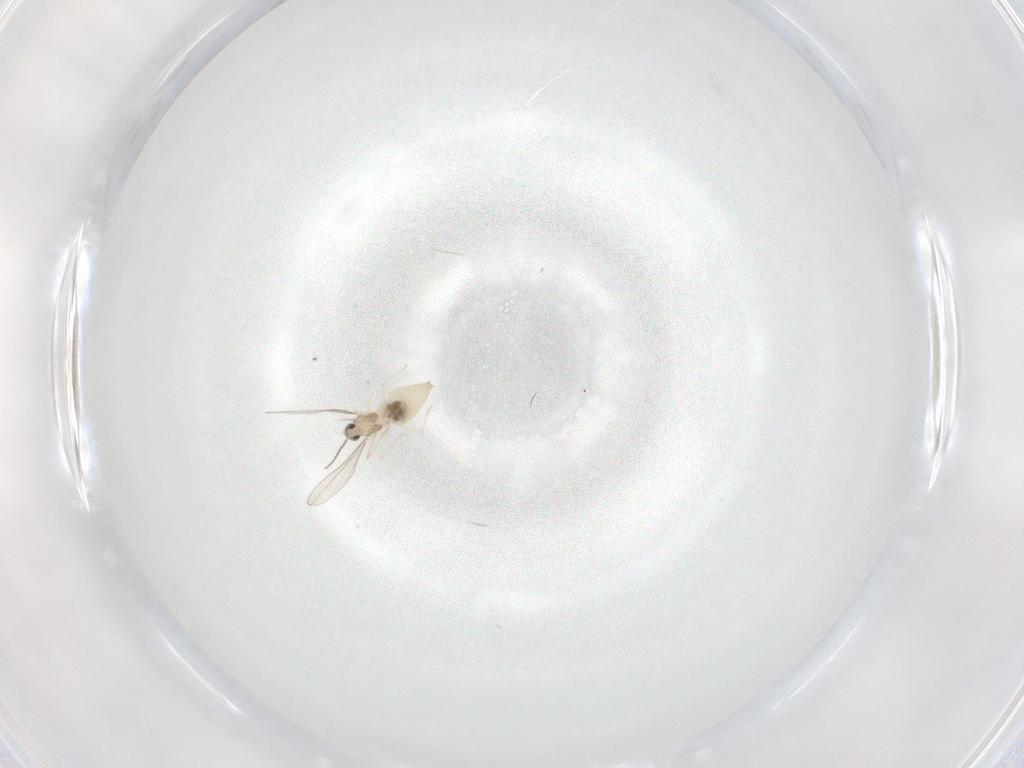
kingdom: Animalia
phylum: Arthropoda
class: Insecta
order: Diptera
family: Cecidomyiidae
